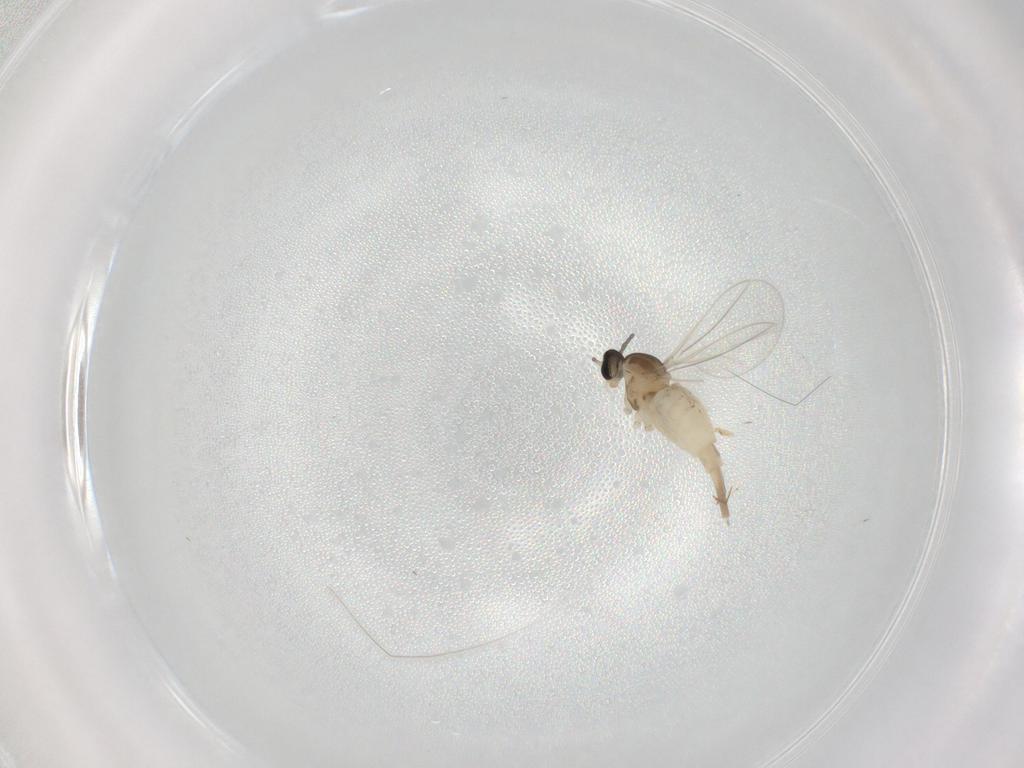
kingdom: Animalia
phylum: Arthropoda
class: Insecta
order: Diptera
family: Cecidomyiidae
